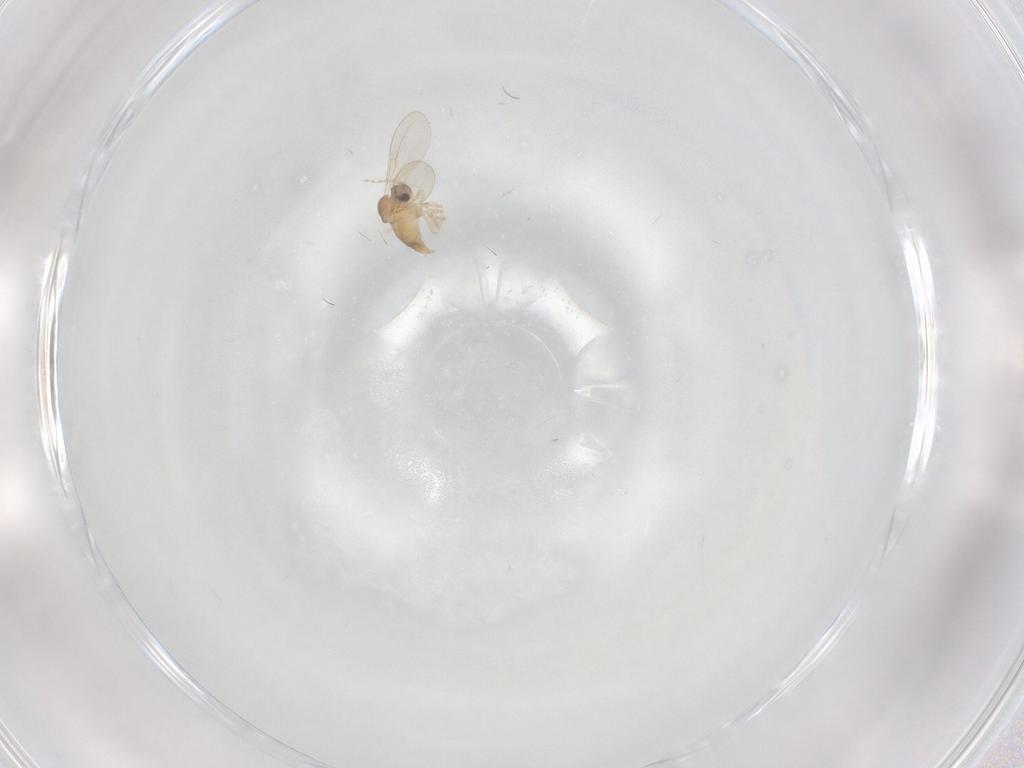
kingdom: Animalia
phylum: Arthropoda
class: Insecta
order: Diptera
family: Cecidomyiidae
